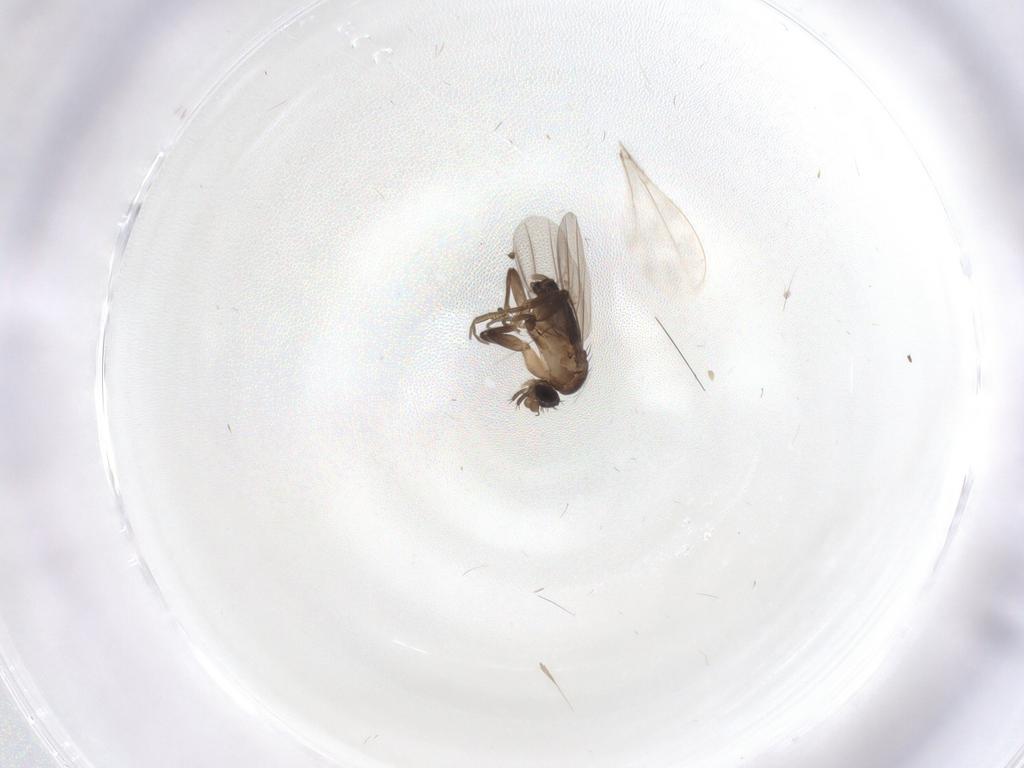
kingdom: Animalia
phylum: Arthropoda
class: Insecta
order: Diptera
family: Phoridae
